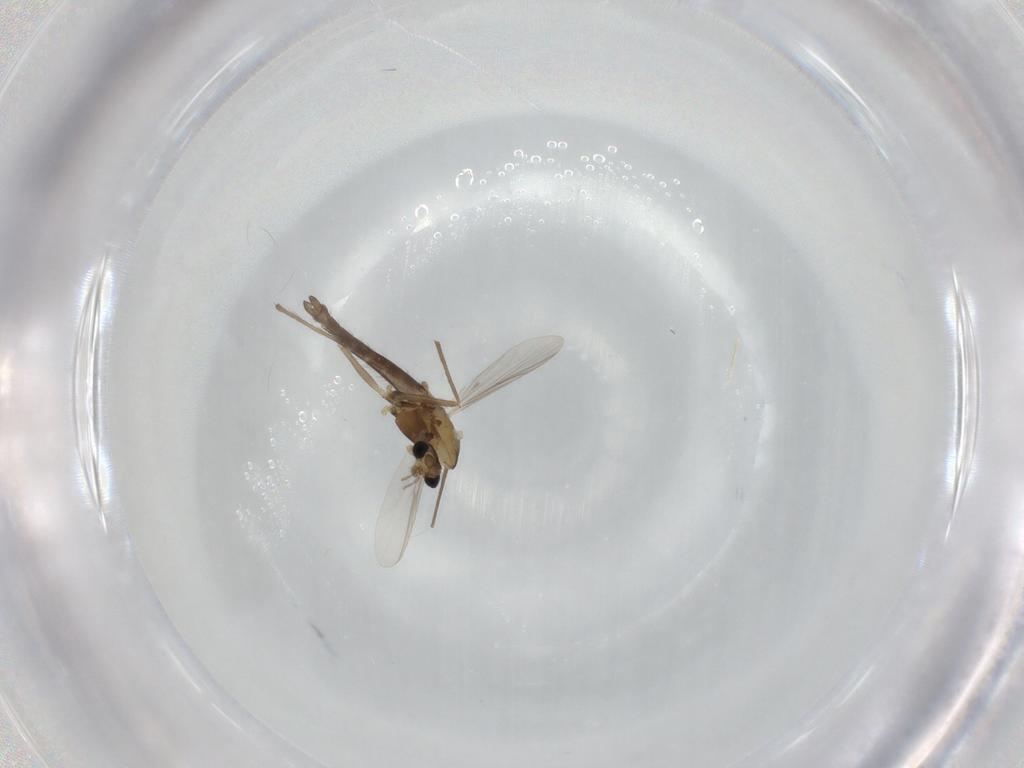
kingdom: Animalia
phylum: Arthropoda
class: Insecta
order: Diptera
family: Chironomidae
